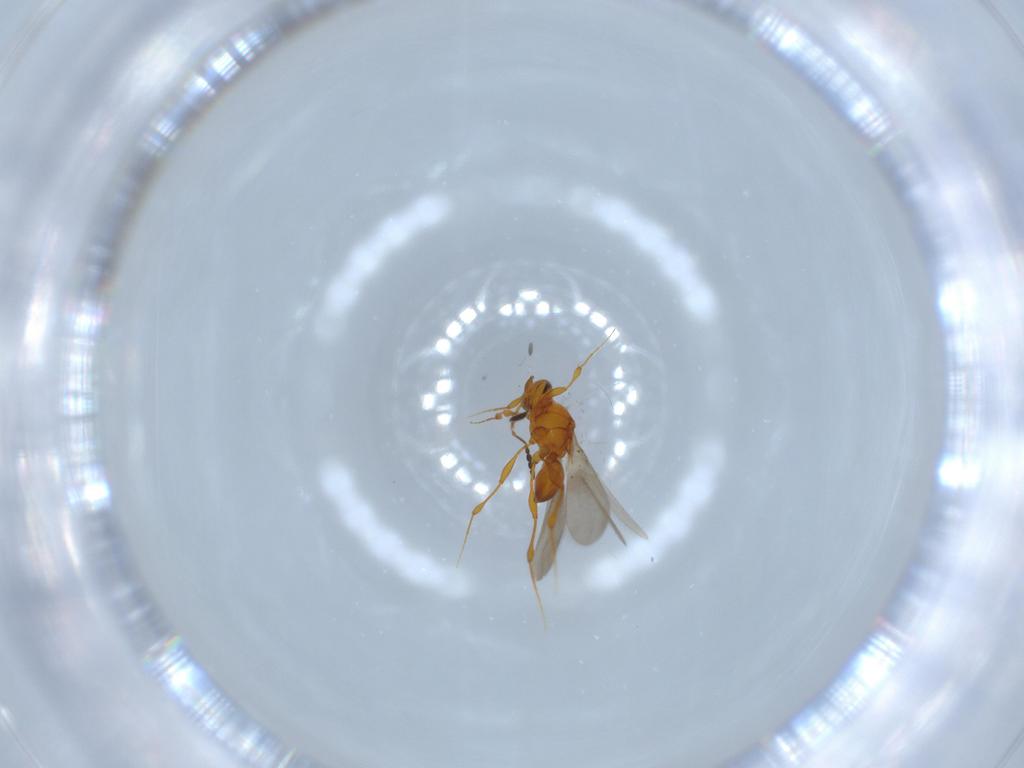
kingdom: Animalia
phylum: Arthropoda
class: Insecta
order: Hymenoptera
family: Platygastridae
